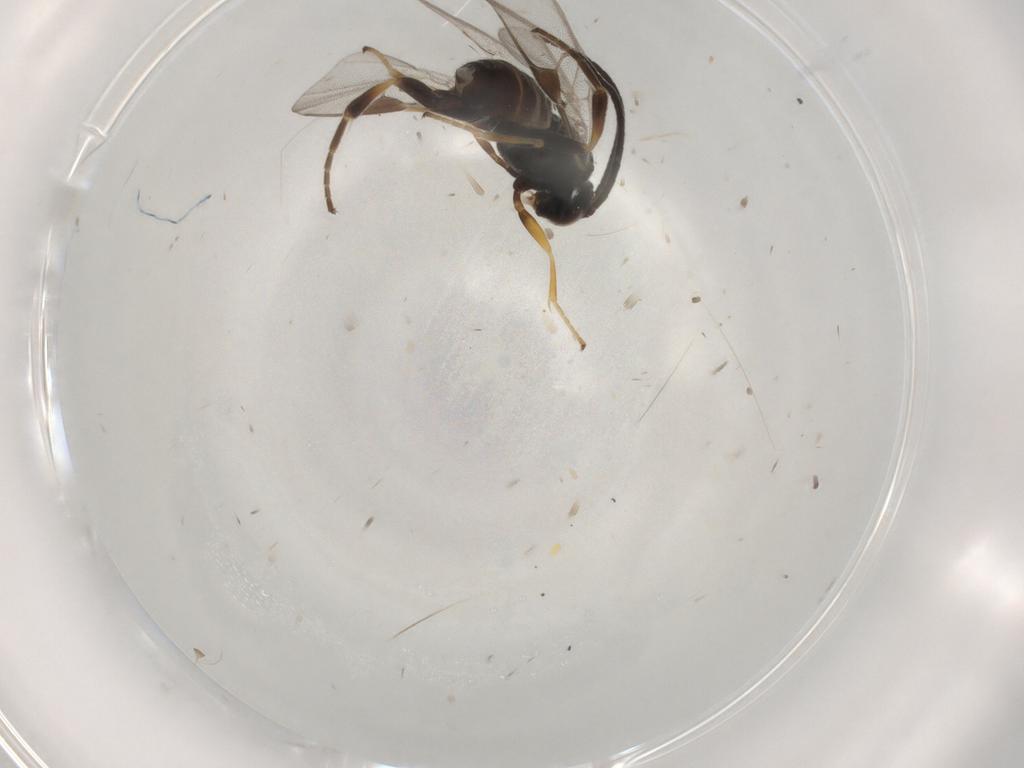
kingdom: Animalia
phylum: Arthropoda
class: Insecta
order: Hymenoptera
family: Braconidae
